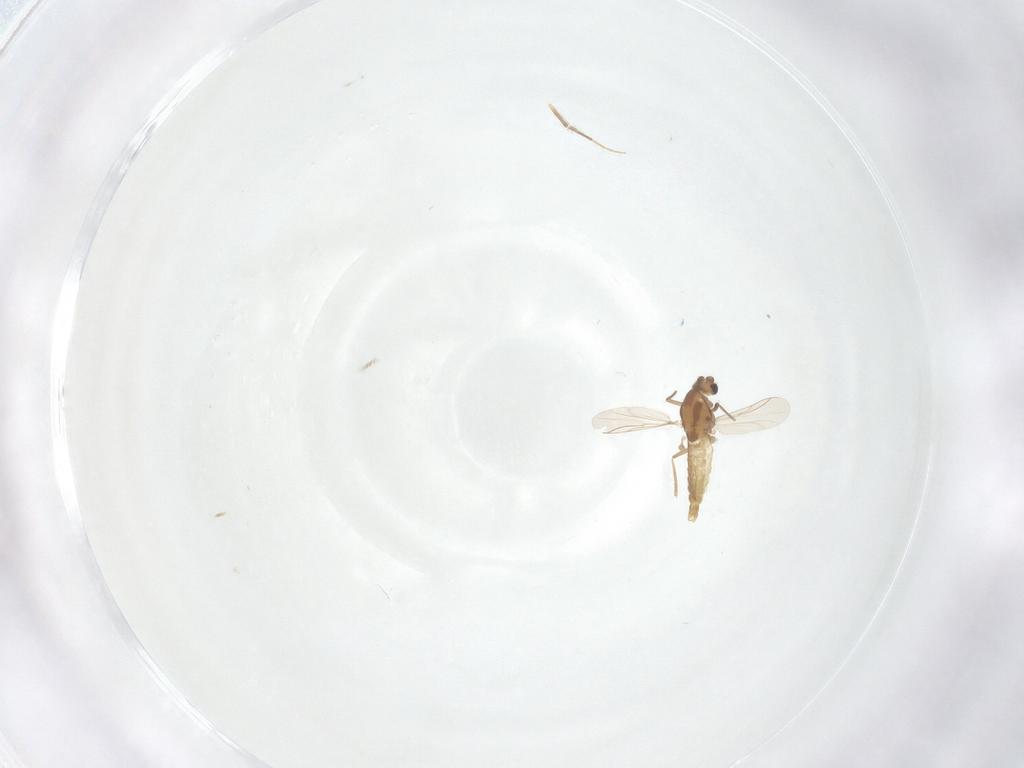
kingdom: Animalia
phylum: Arthropoda
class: Insecta
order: Diptera
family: Chironomidae
